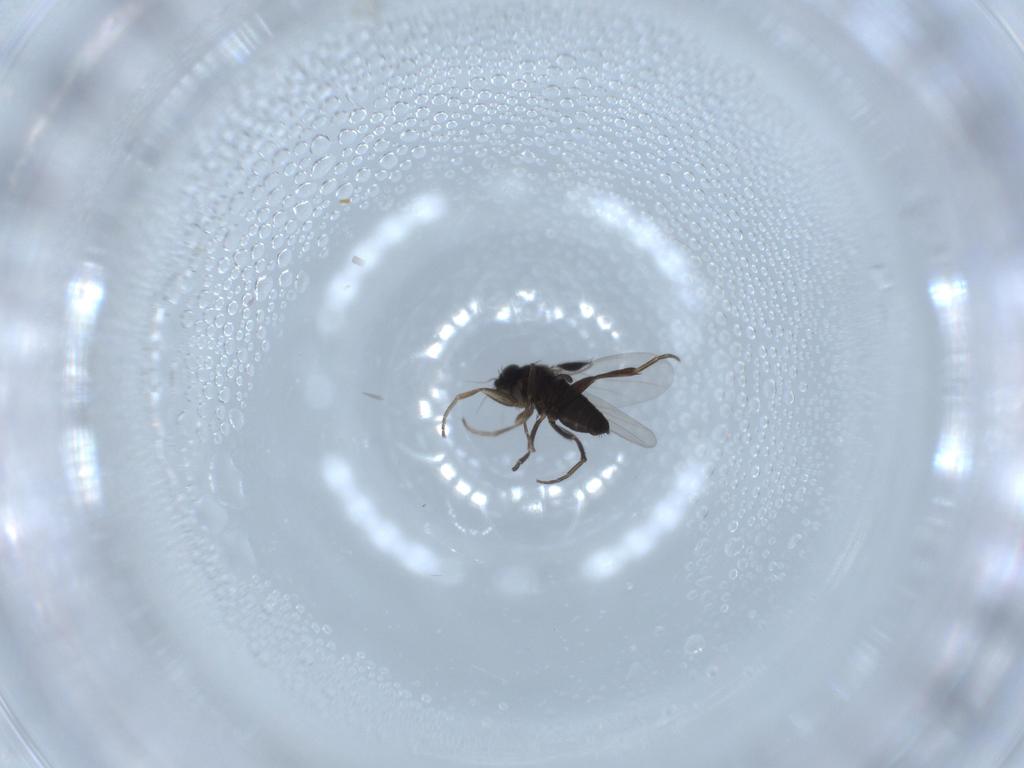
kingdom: Animalia
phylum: Arthropoda
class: Insecta
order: Diptera
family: Phoridae
